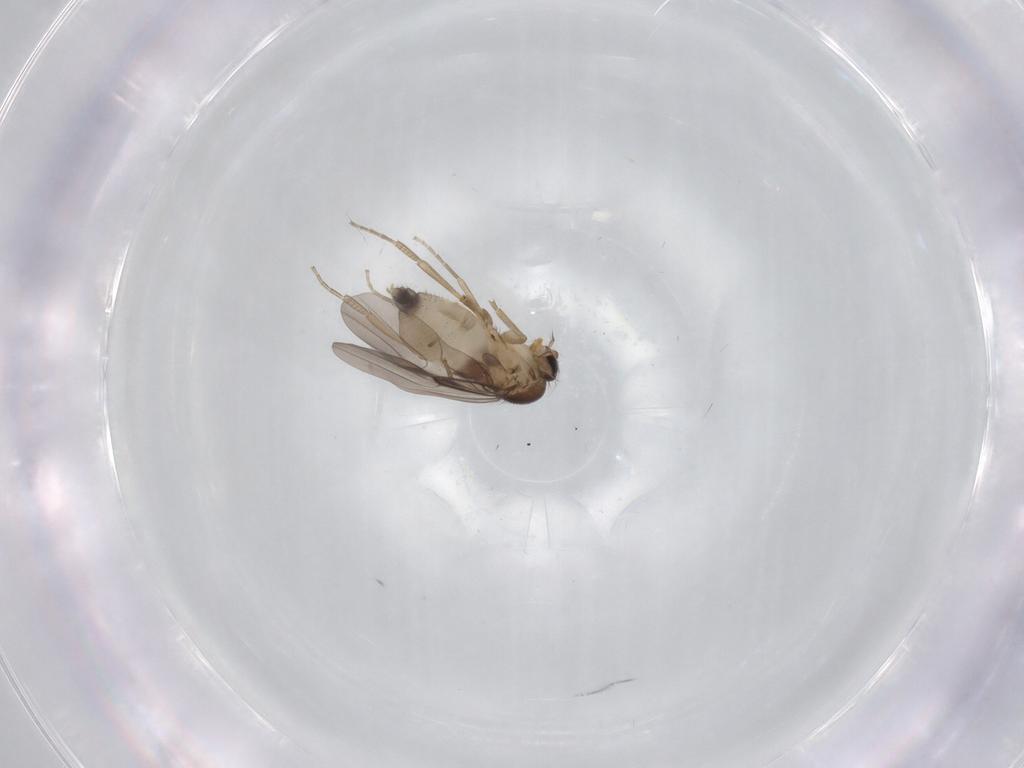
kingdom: Animalia
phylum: Arthropoda
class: Insecta
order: Diptera
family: Phoridae
